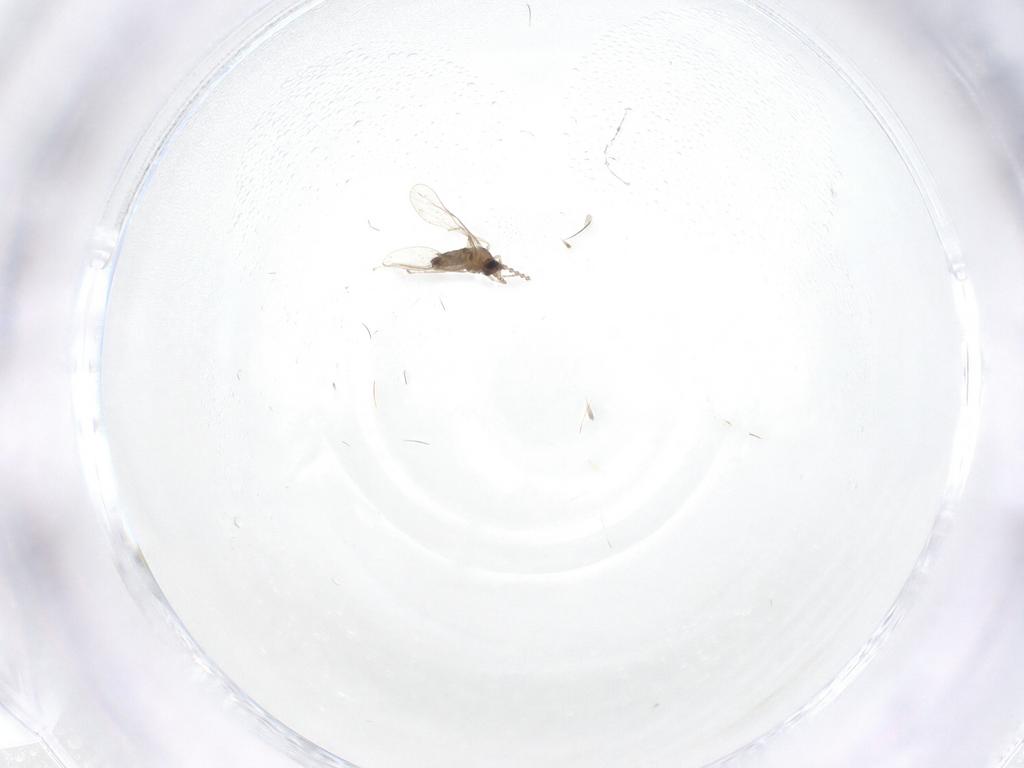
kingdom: Animalia
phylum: Arthropoda
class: Insecta
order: Diptera
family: Cecidomyiidae
